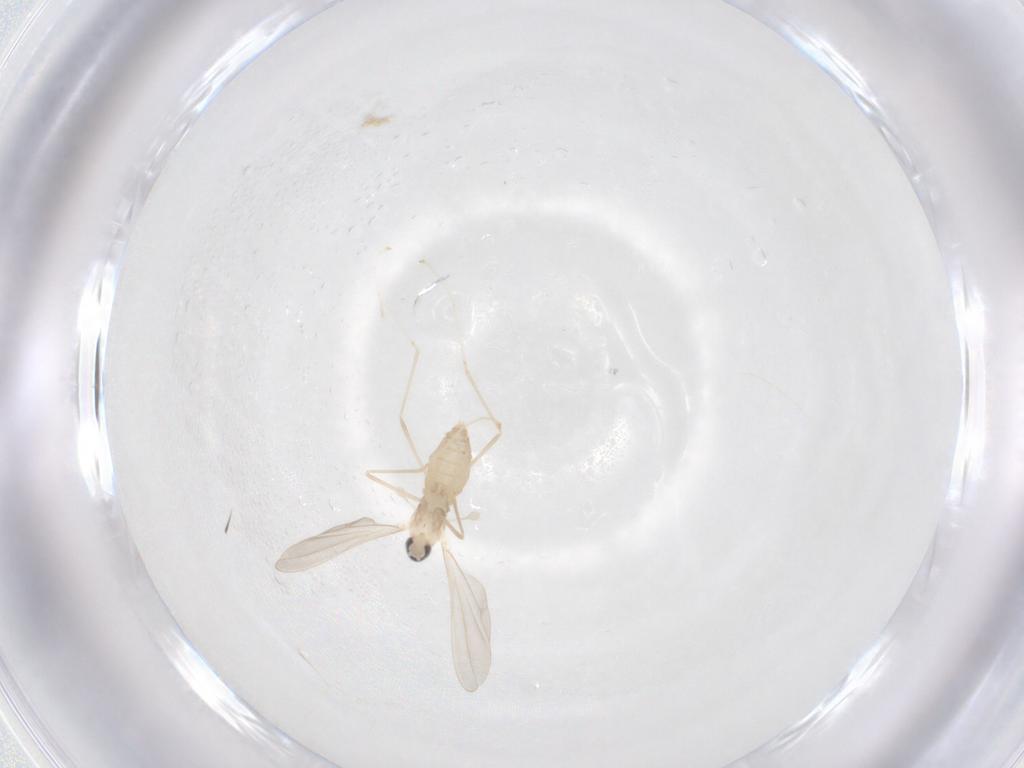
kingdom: Animalia
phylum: Arthropoda
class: Insecta
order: Diptera
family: Cecidomyiidae
